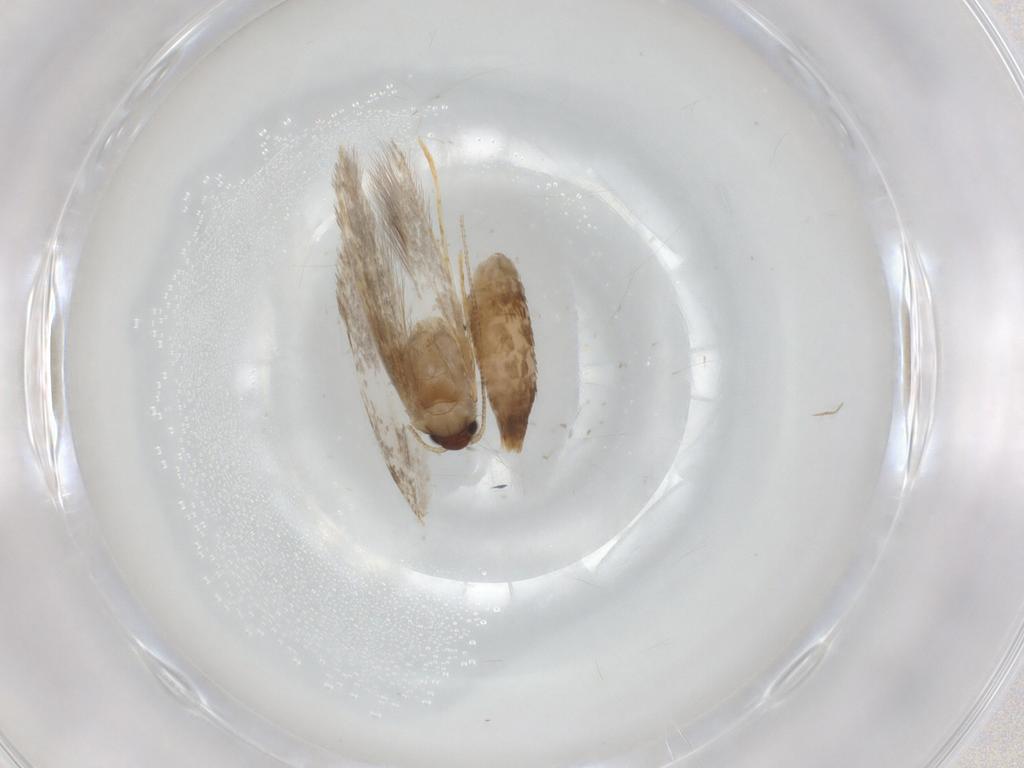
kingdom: Animalia
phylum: Arthropoda
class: Insecta
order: Lepidoptera
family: Tineidae
